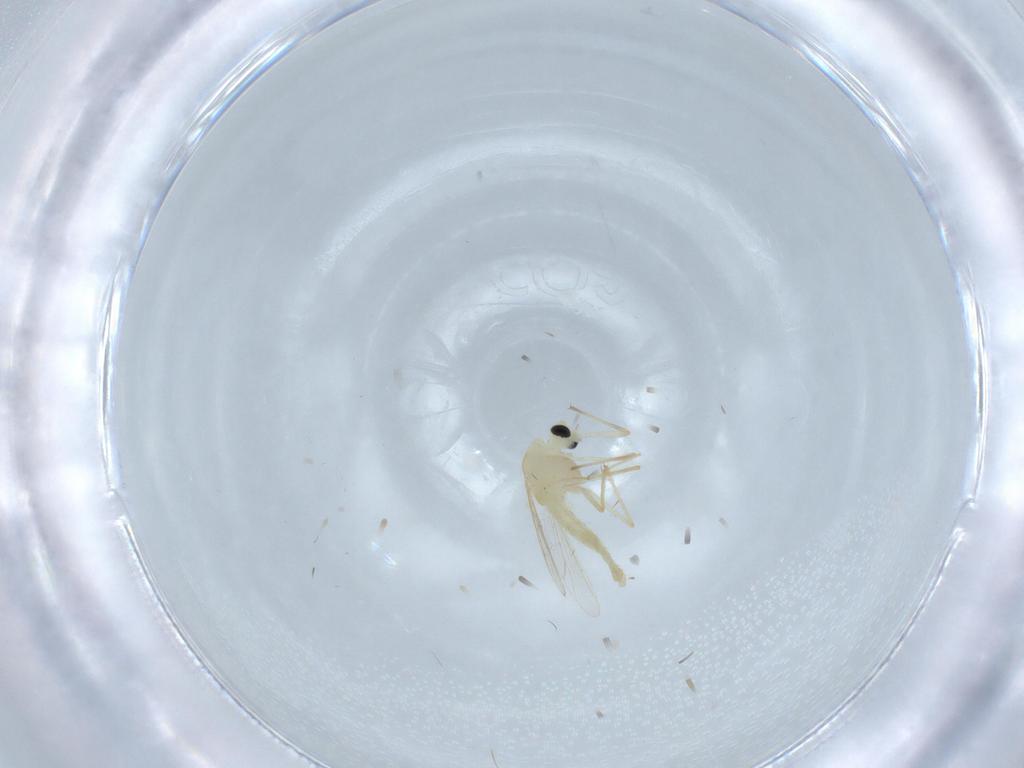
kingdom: Animalia
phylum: Arthropoda
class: Insecta
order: Diptera
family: Chironomidae
